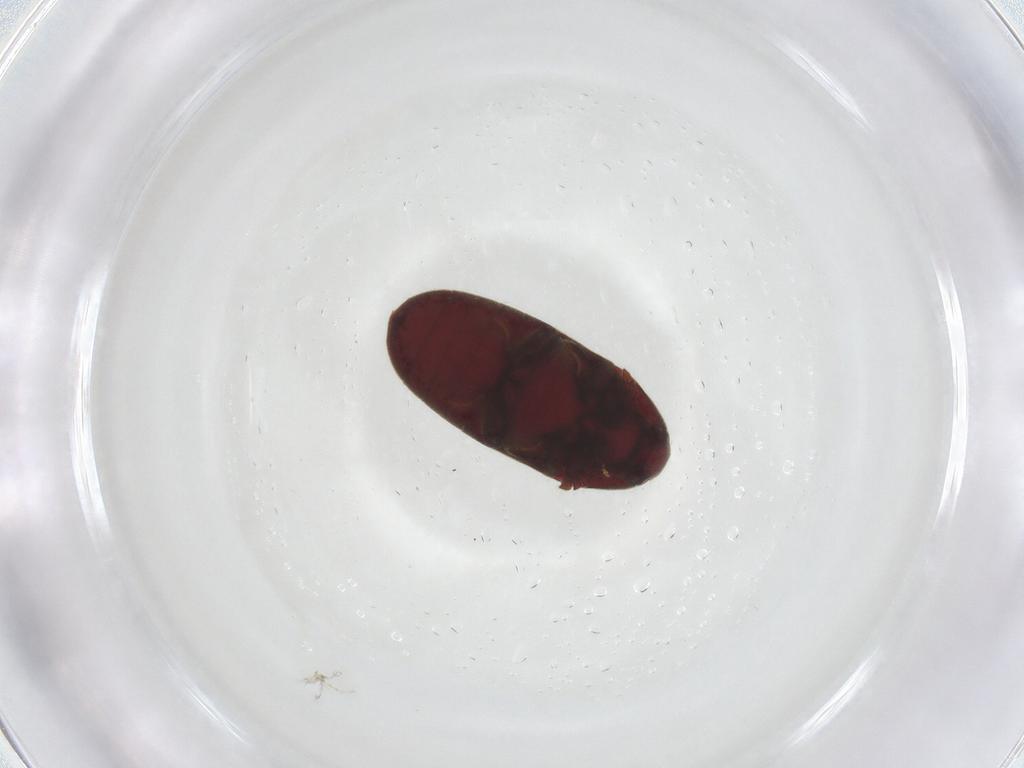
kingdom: Animalia
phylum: Arthropoda
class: Insecta
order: Coleoptera
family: Throscidae
